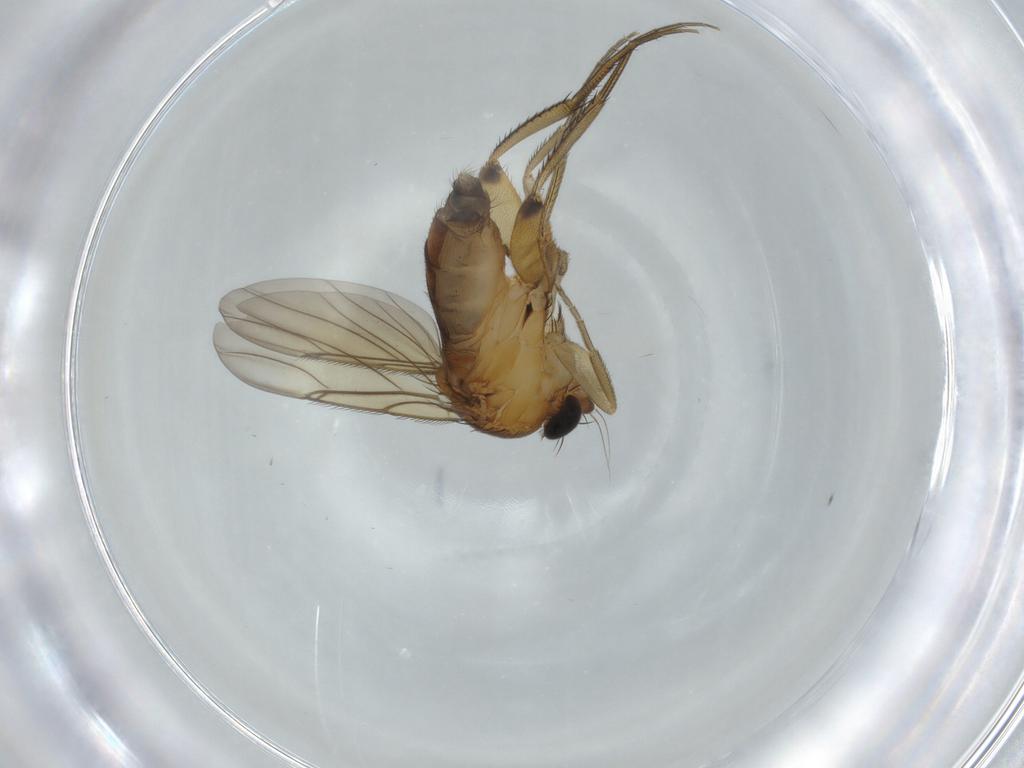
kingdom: Animalia
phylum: Arthropoda
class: Insecta
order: Diptera
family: Phoridae
